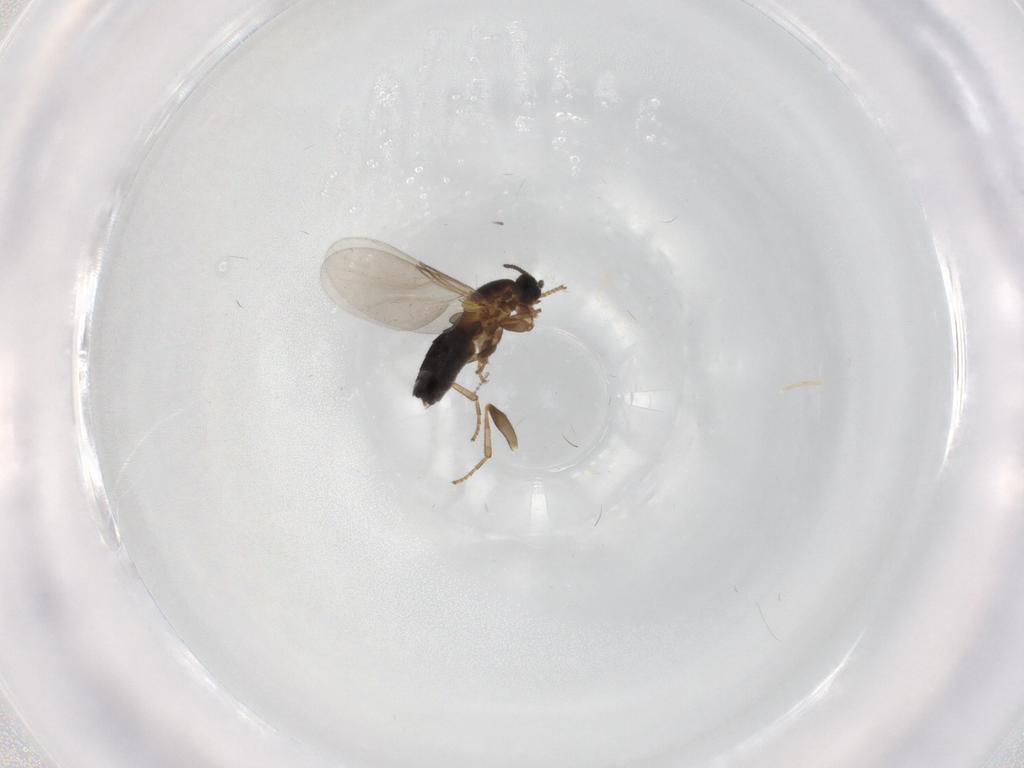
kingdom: Animalia
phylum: Arthropoda
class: Insecta
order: Diptera
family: Scatopsidae
